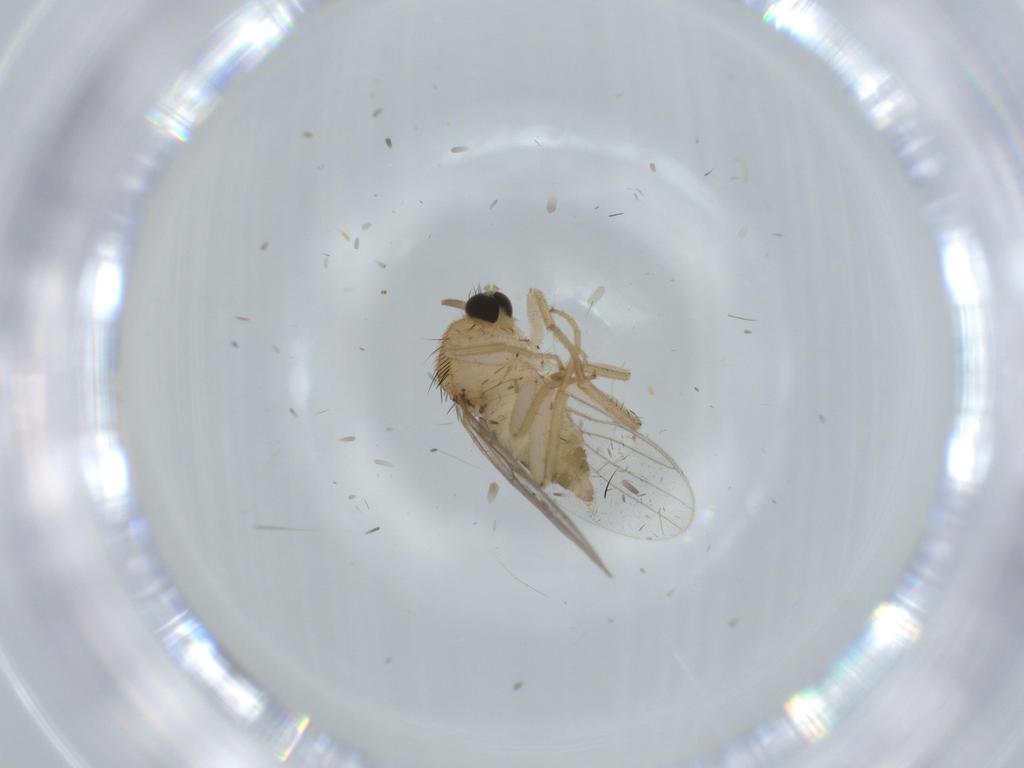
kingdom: Animalia
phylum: Arthropoda
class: Insecta
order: Diptera
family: Hybotidae
